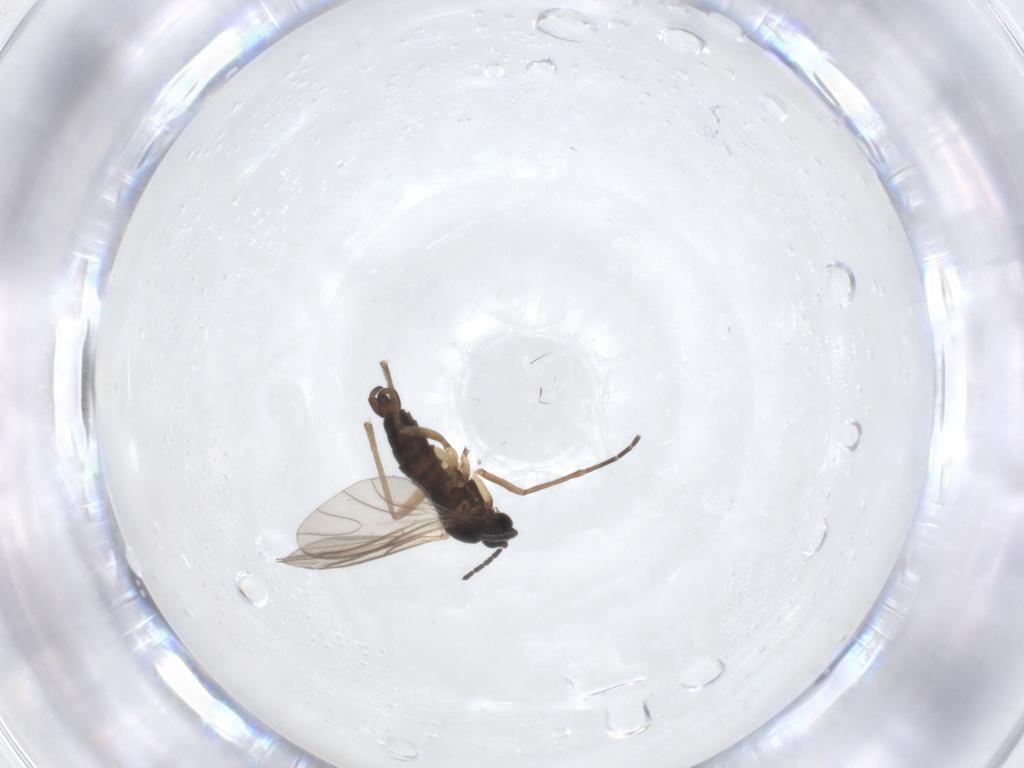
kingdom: Animalia
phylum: Arthropoda
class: Insecta
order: Diptera
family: Sciaridae
